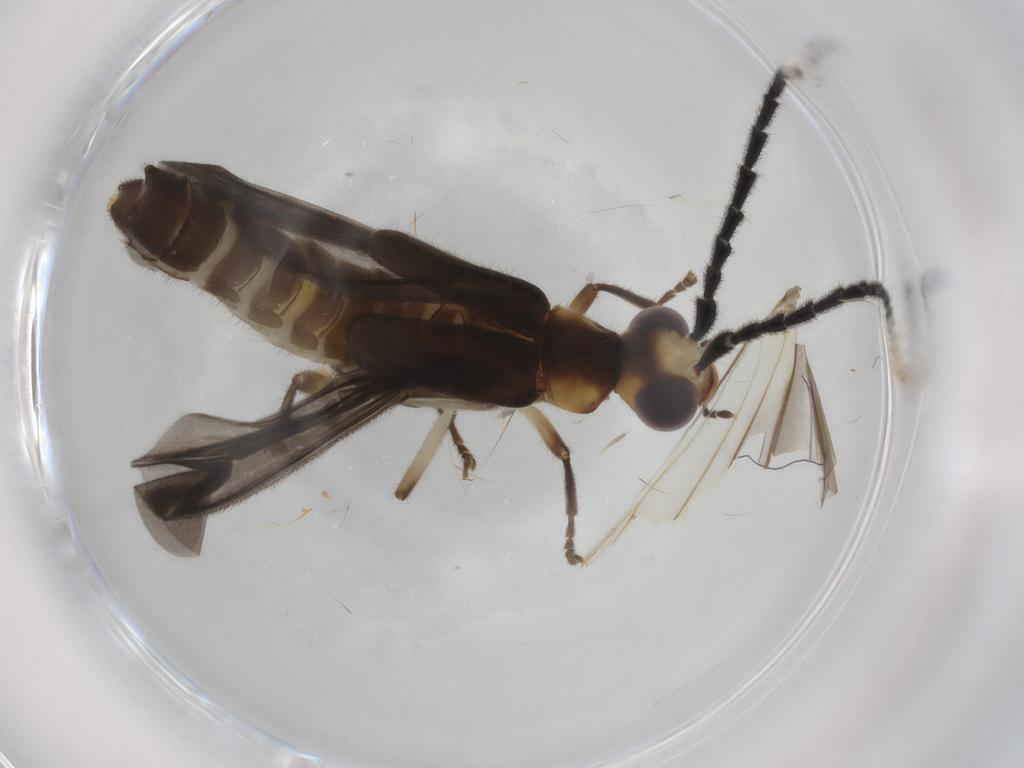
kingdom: Animalia
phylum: Arthropoda
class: Insecta
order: Coleoptera
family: Cantharidae
